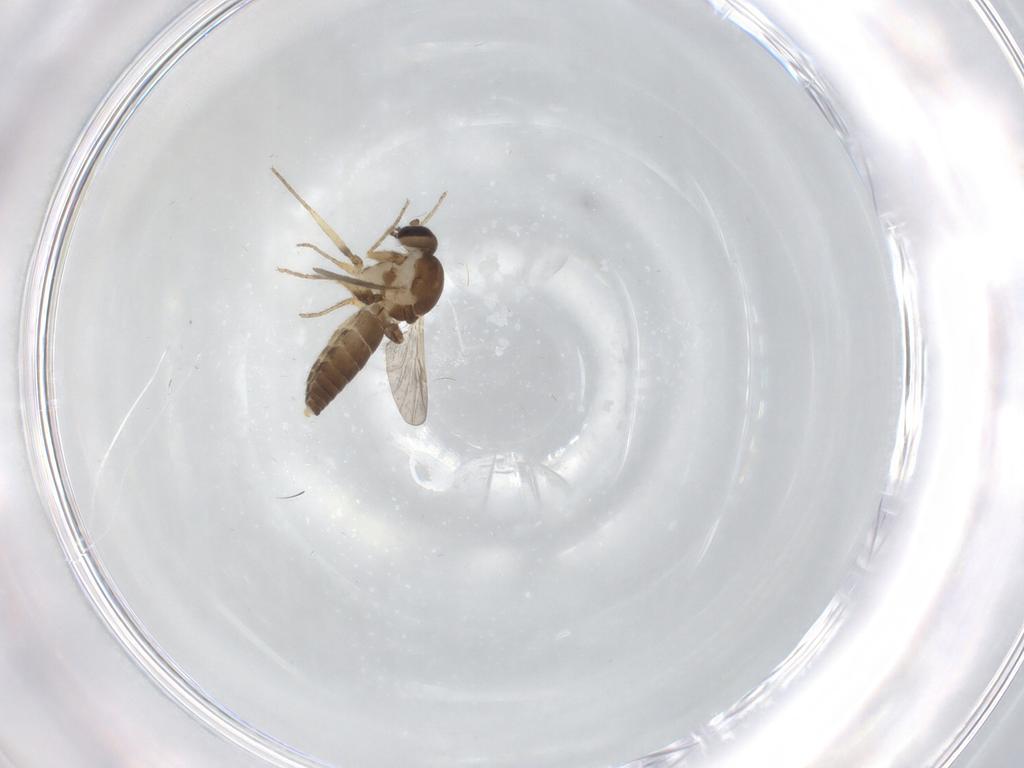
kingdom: Animalia
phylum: Arthropoda
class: Insecta
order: Diptera
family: Ceratopogonidae
